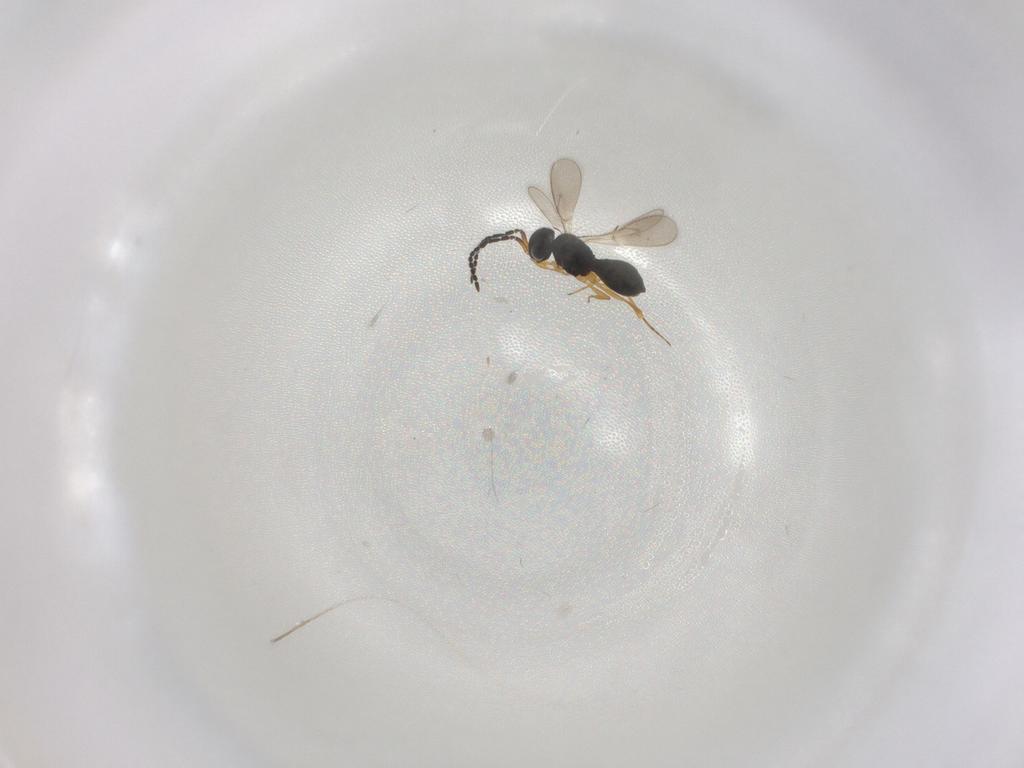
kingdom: Animalia
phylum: Arthropoda
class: Insecta
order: Hymenoptera
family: Scelionidae
